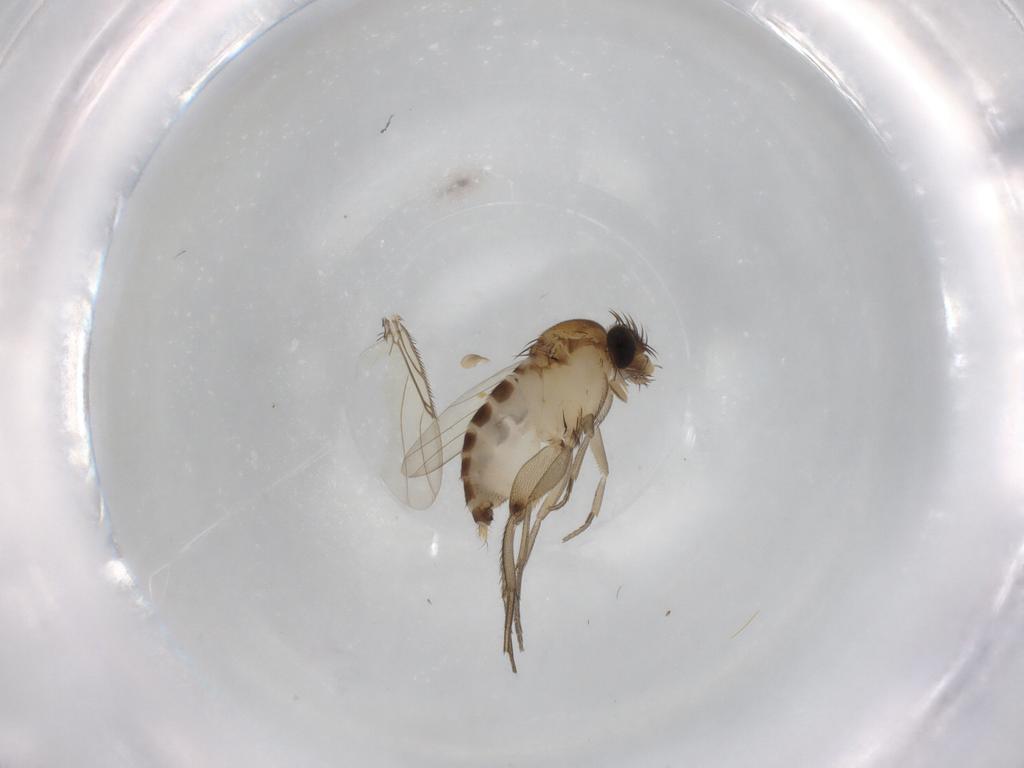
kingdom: Animalia
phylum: Arthropoda
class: Insecta
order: Diptera
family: Phoridae
